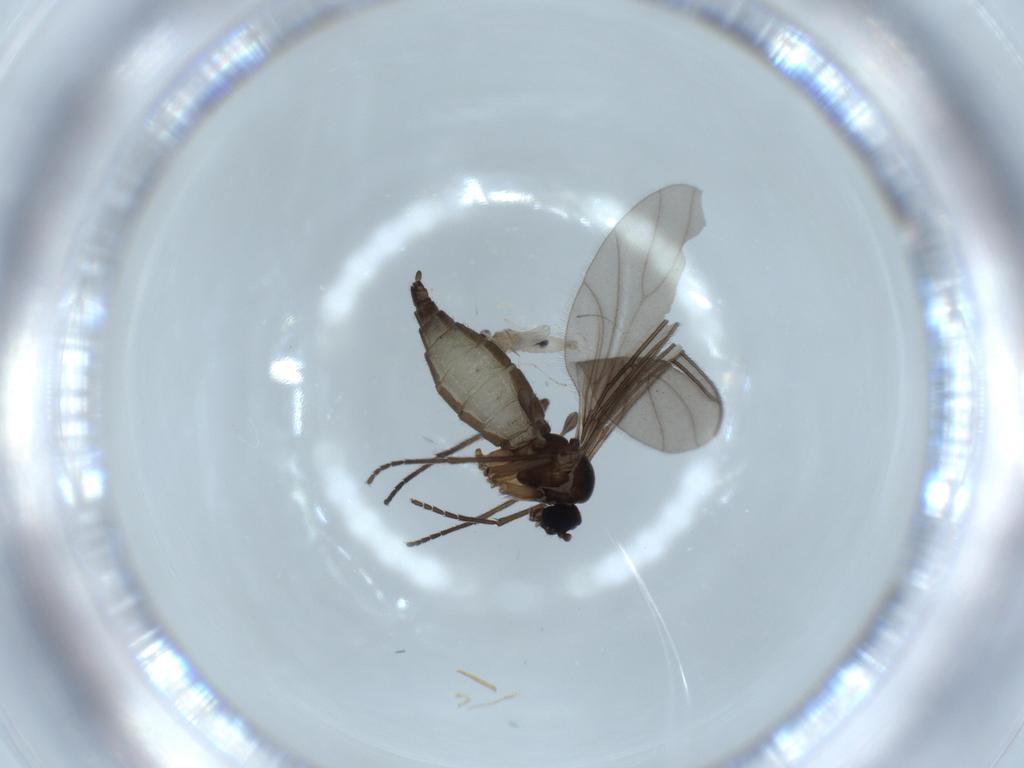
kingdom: Animalia
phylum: Arthropoda
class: Insecta
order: Diptera
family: Cecidomyiidae
